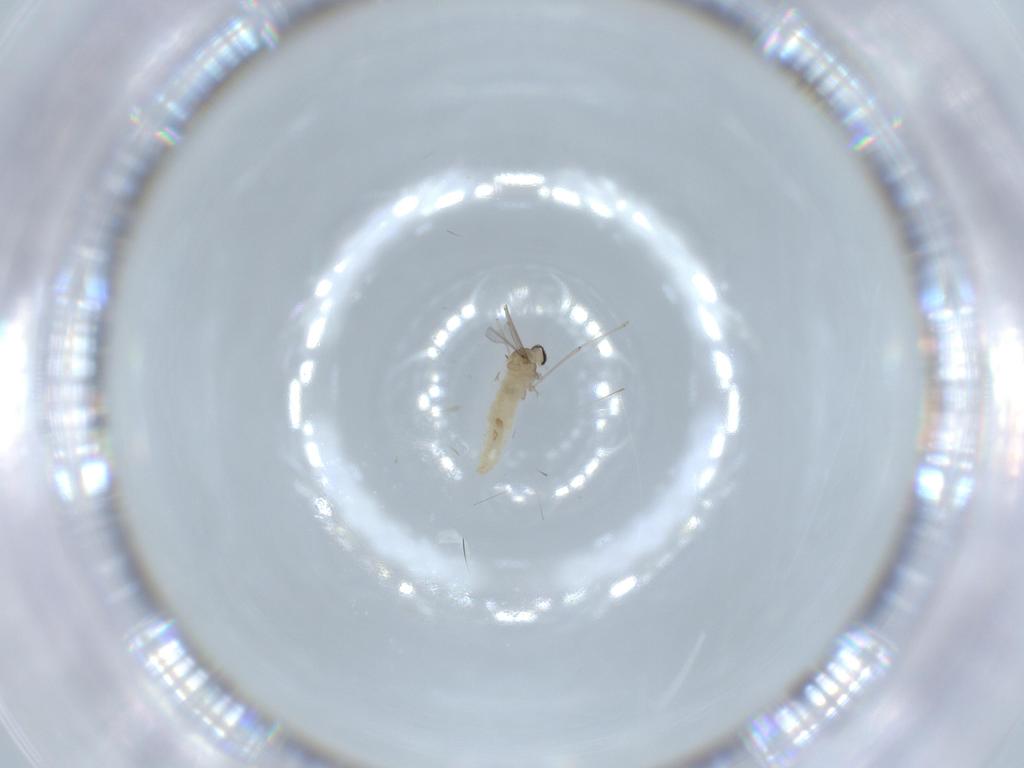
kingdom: Animalia
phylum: Arthropoda
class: Insecta
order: Diptera
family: Cecidomyiidae
